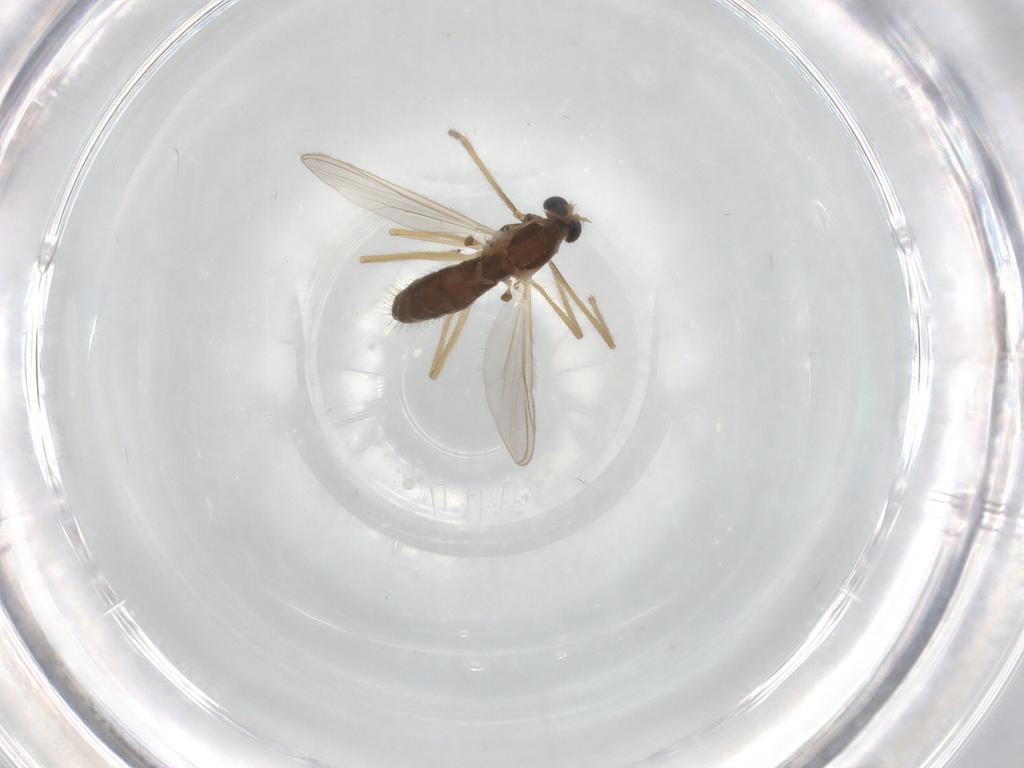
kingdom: Animalia
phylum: Arthropoda
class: Insecta
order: Diptera
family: Chironomidae
